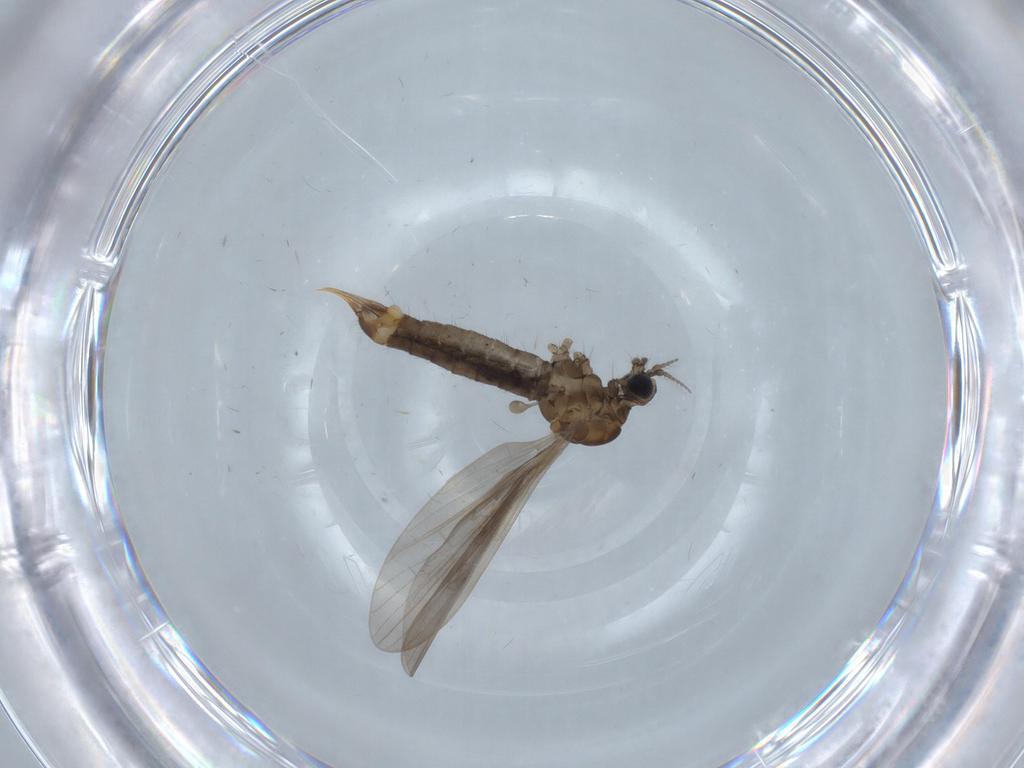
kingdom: Animalia
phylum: Arthropoda
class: Insecta
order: Diptera
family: Limoniidae
